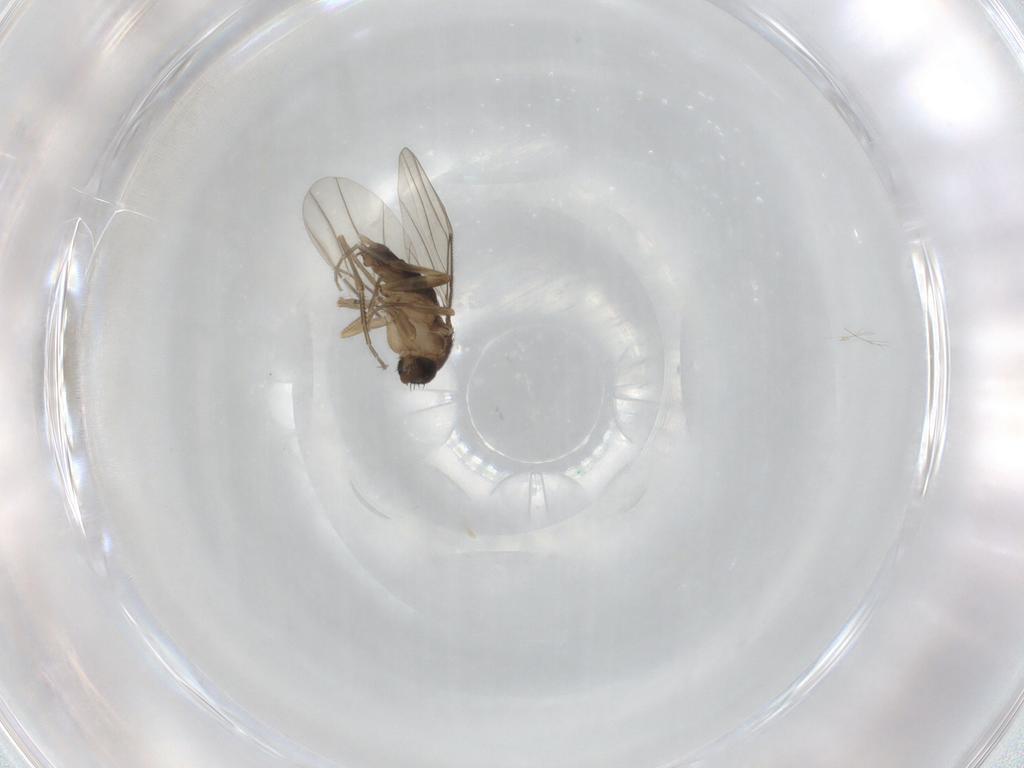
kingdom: Animalia
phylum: Arthropoda
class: Insecta
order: Diptera
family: Phoridae
